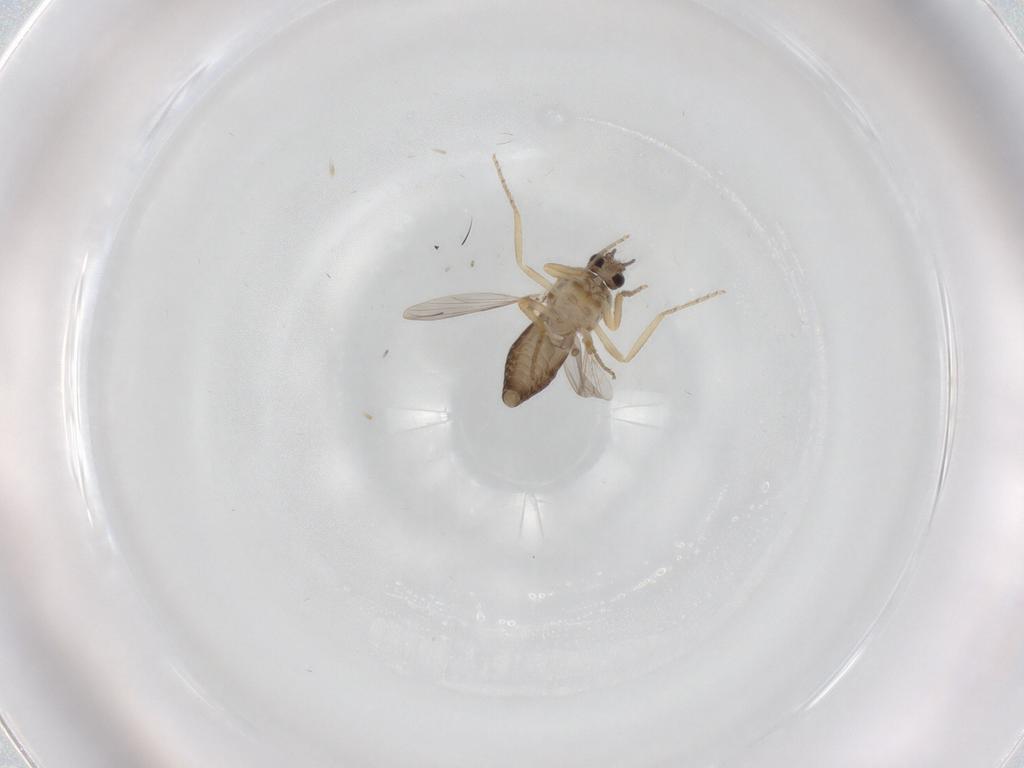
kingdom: Animalia
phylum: Arthropoda
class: Insecta
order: Diptera
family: Ceratopogonidae
